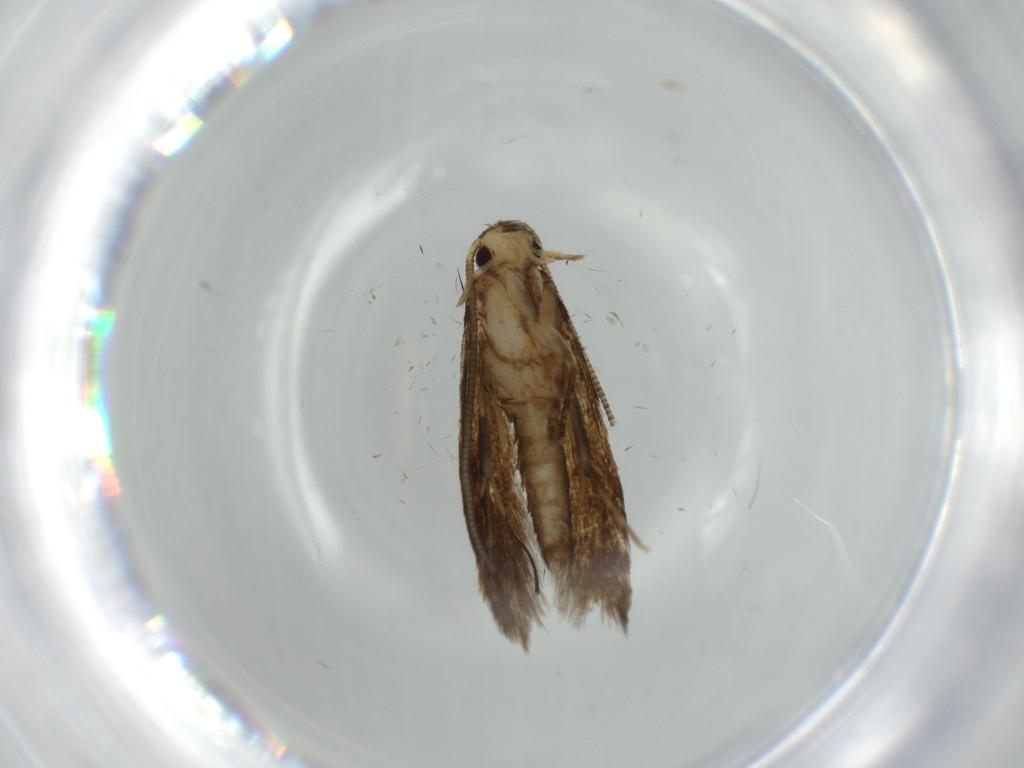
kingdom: Animalia
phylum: Arthropoda
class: Insecta
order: Lepidoptera
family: Tineidae
